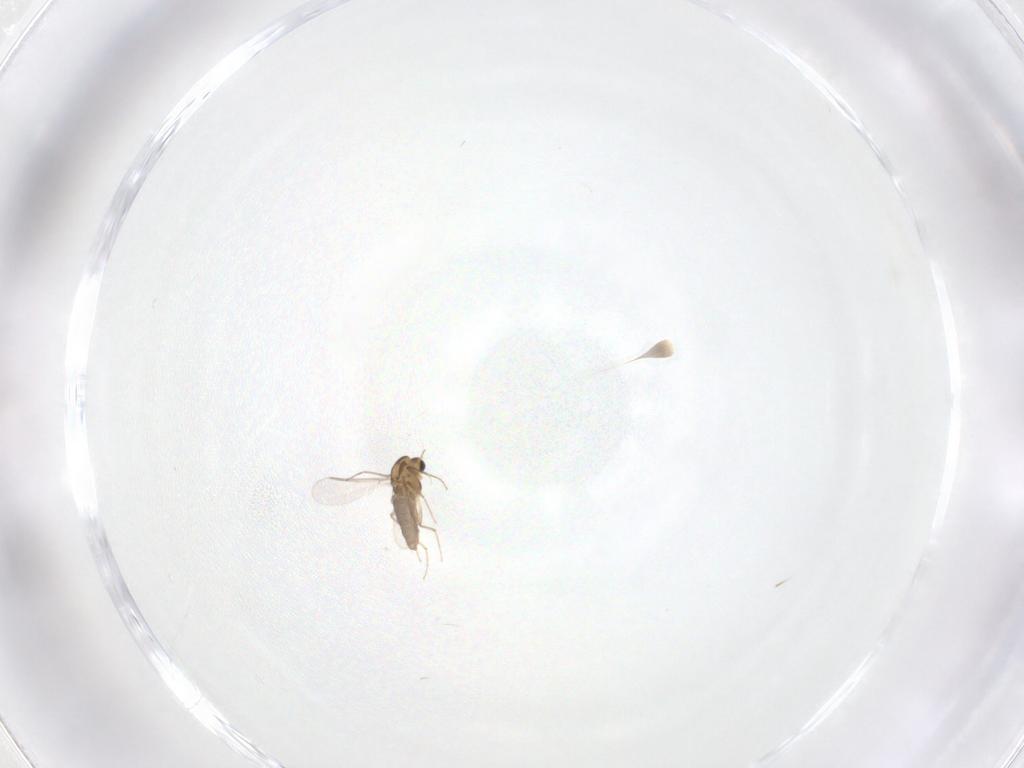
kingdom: Animalia
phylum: Arthropoda
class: Insecta
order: Diptera
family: Chironomidae
